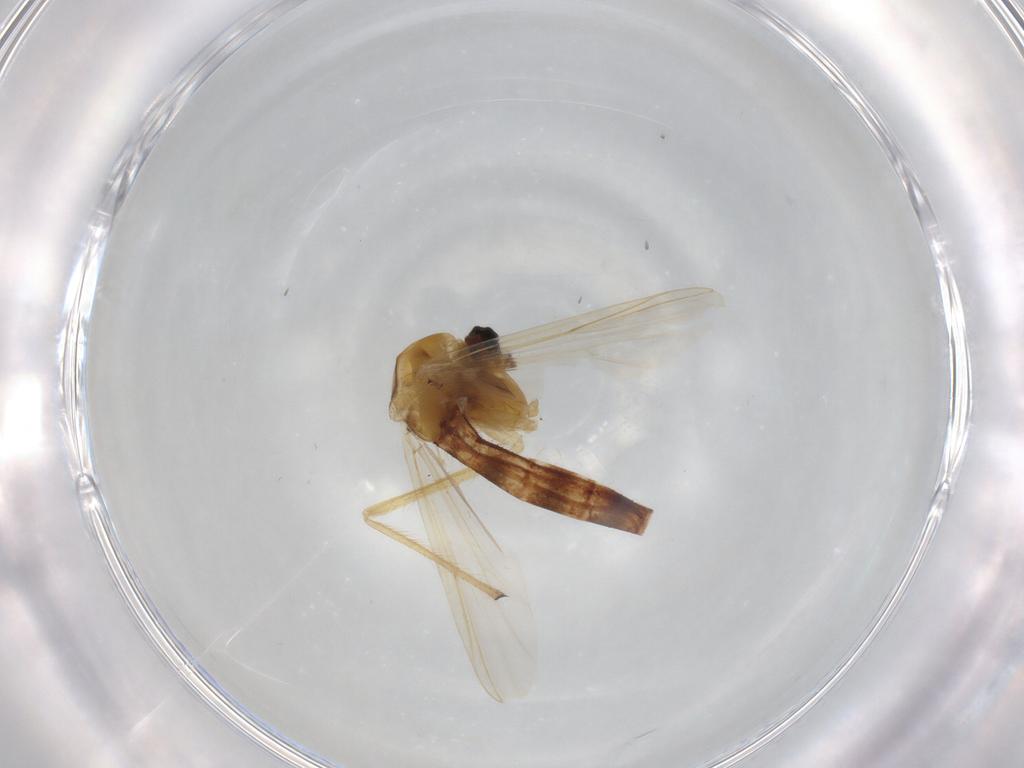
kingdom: Animalia
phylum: Arthropoda
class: Insecta
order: Diptera
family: Chironomidae
